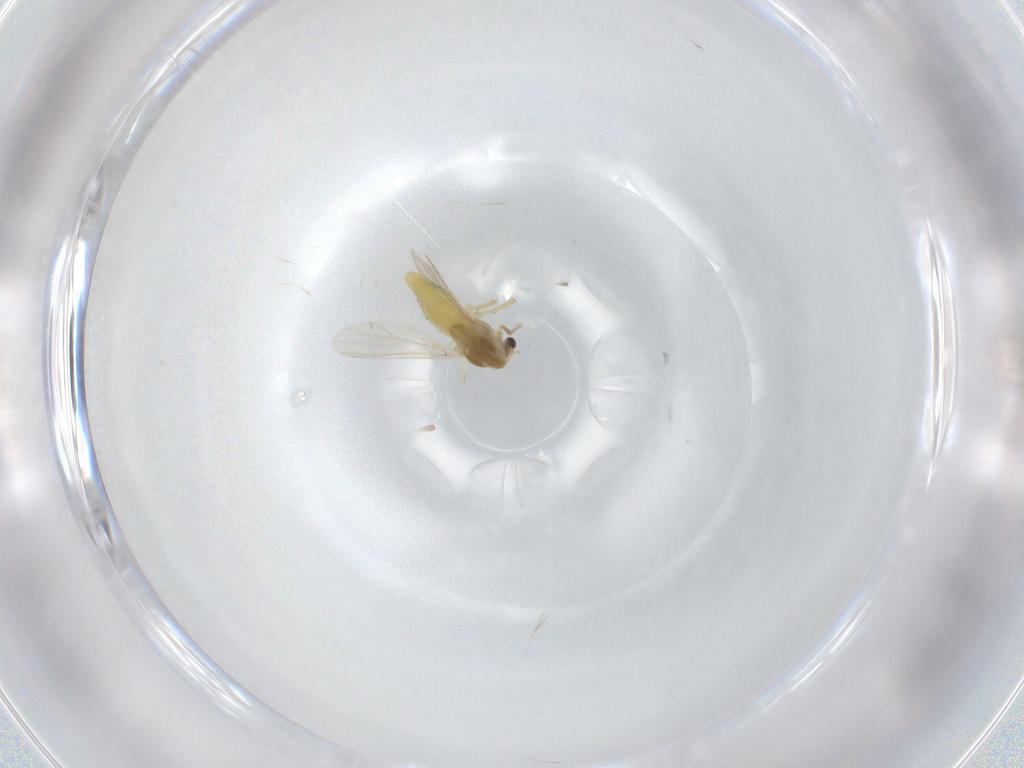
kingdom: Animalia
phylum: Arthropoda
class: Insecta
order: Diptera
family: Chironomidae
